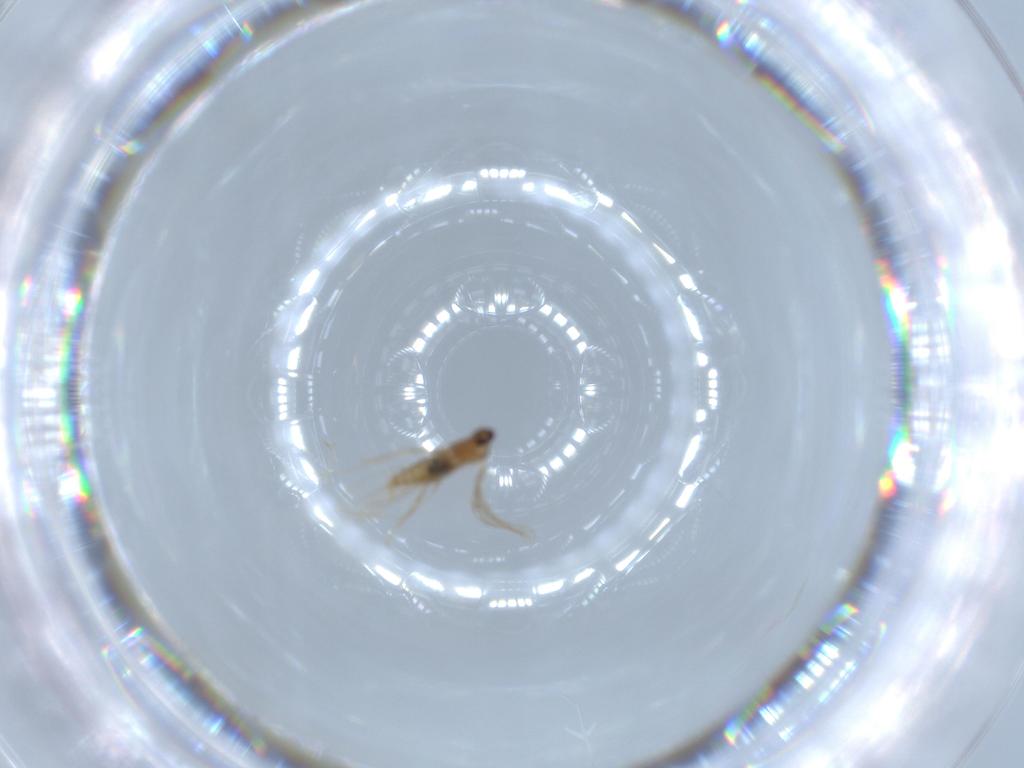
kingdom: Animalia
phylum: Arthropoda
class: Insecta
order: Diptera
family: Cecidomyiidae
